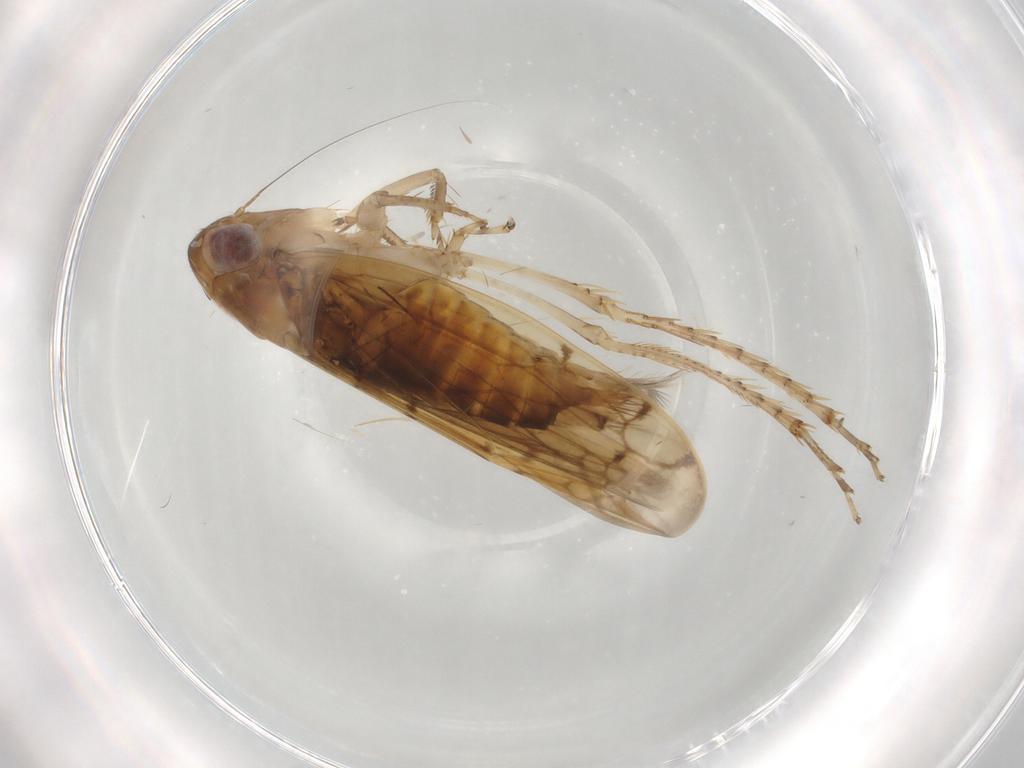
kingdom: Animalia
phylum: Arthropoda
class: Insecta
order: Hemiptera
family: Cicadellidae
